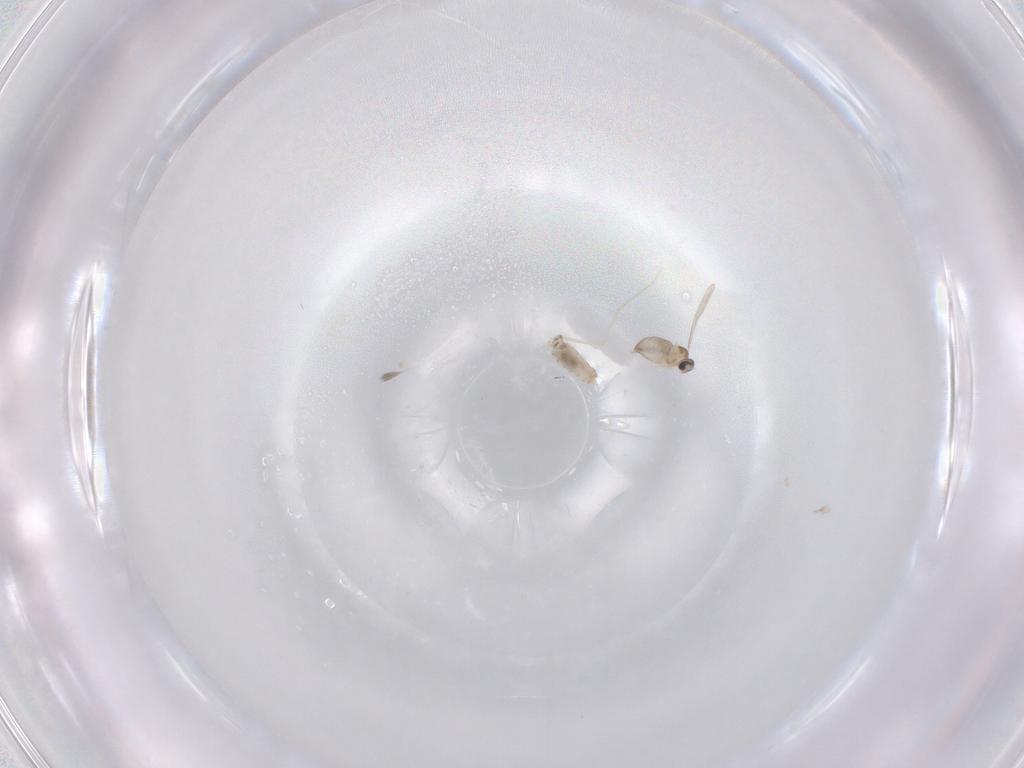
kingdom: Animalia
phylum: Arthropoda
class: Insecta
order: Diptera
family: Cecidomyiidae
